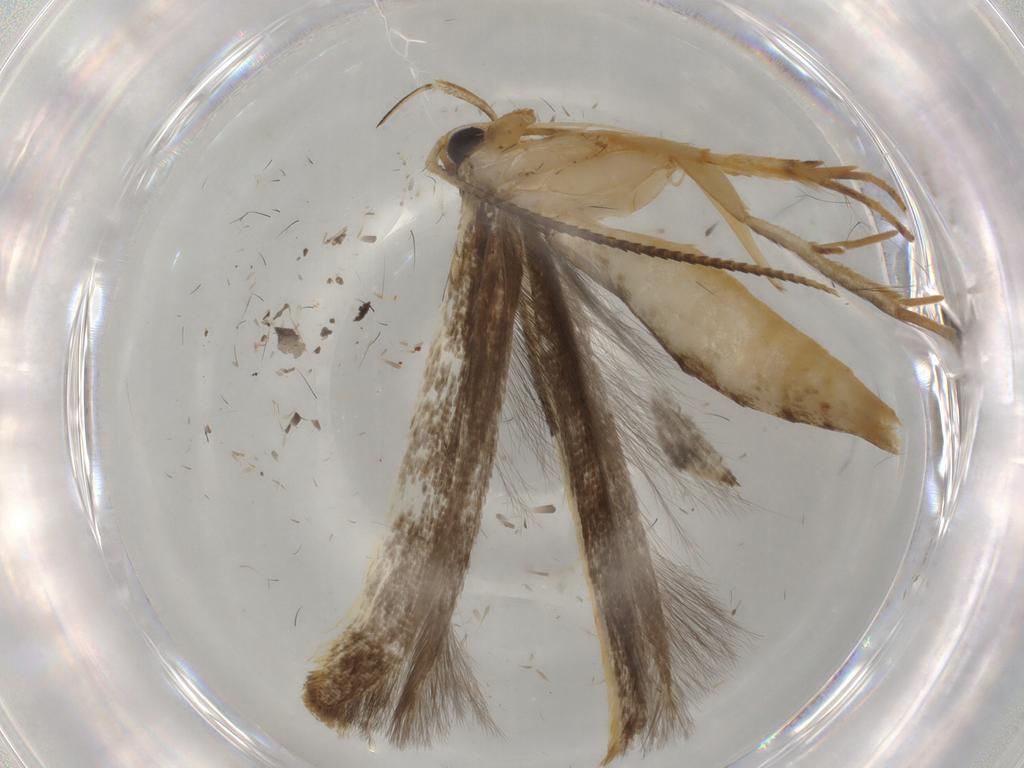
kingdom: Animalia
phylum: Arthropoda
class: Insecta
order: Lepidoptera
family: Pterolonchidae
